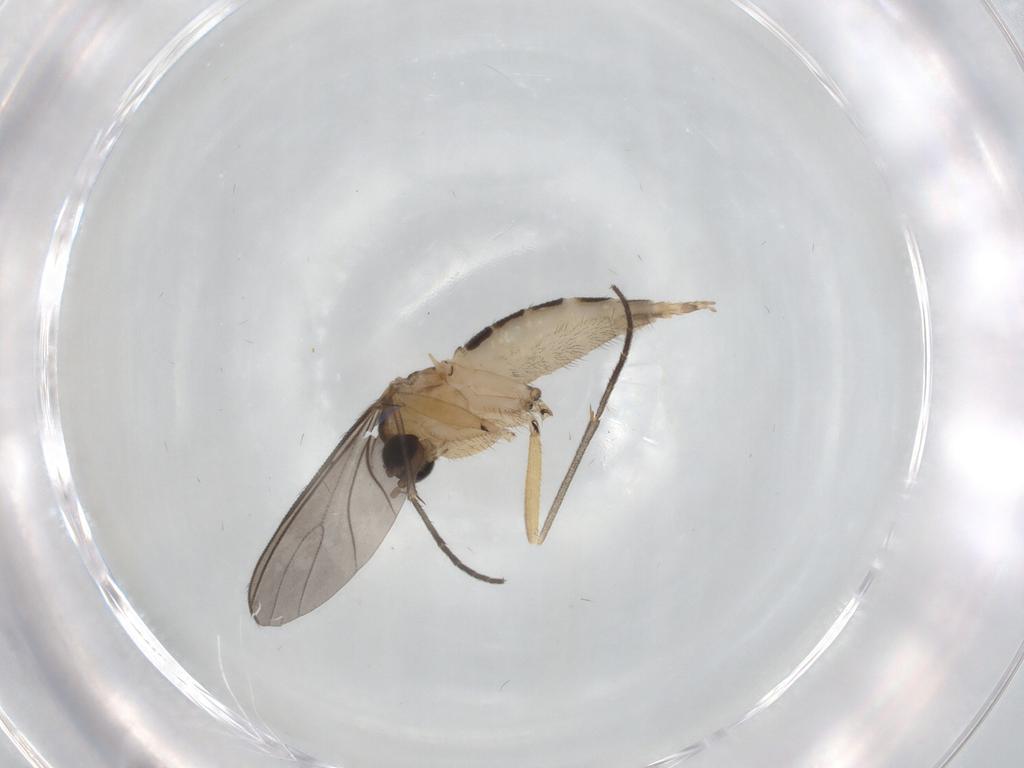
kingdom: Animalia
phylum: Arthropoda
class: Insecta
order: Diptera
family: Sciaridae
